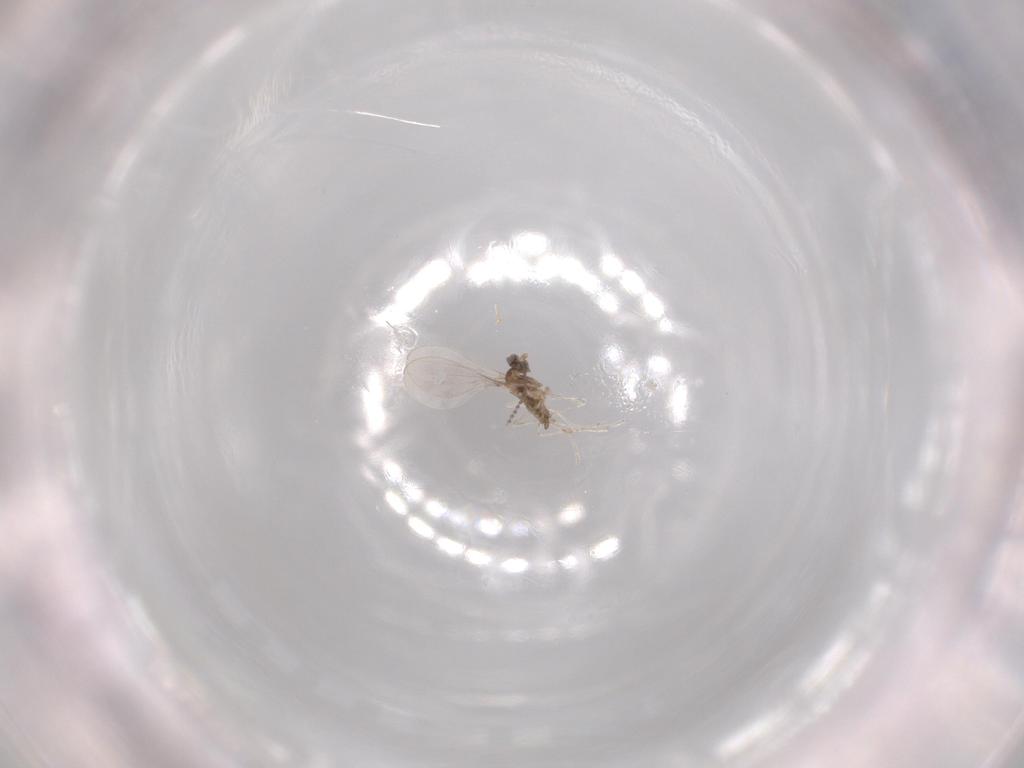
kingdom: Animalia
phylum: Arthropoda
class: Insecta
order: Diptera
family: Cecidomyiidae
